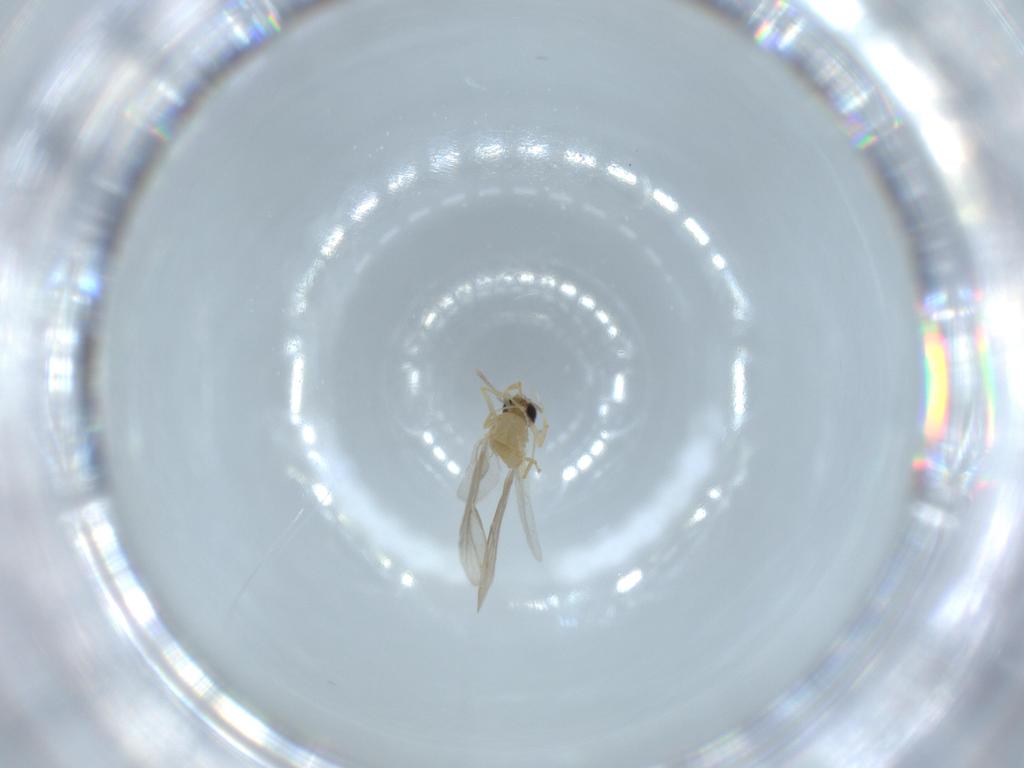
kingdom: Animalia
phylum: Arthropoda
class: Insecta
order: Hymenoptera
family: Formicidae
